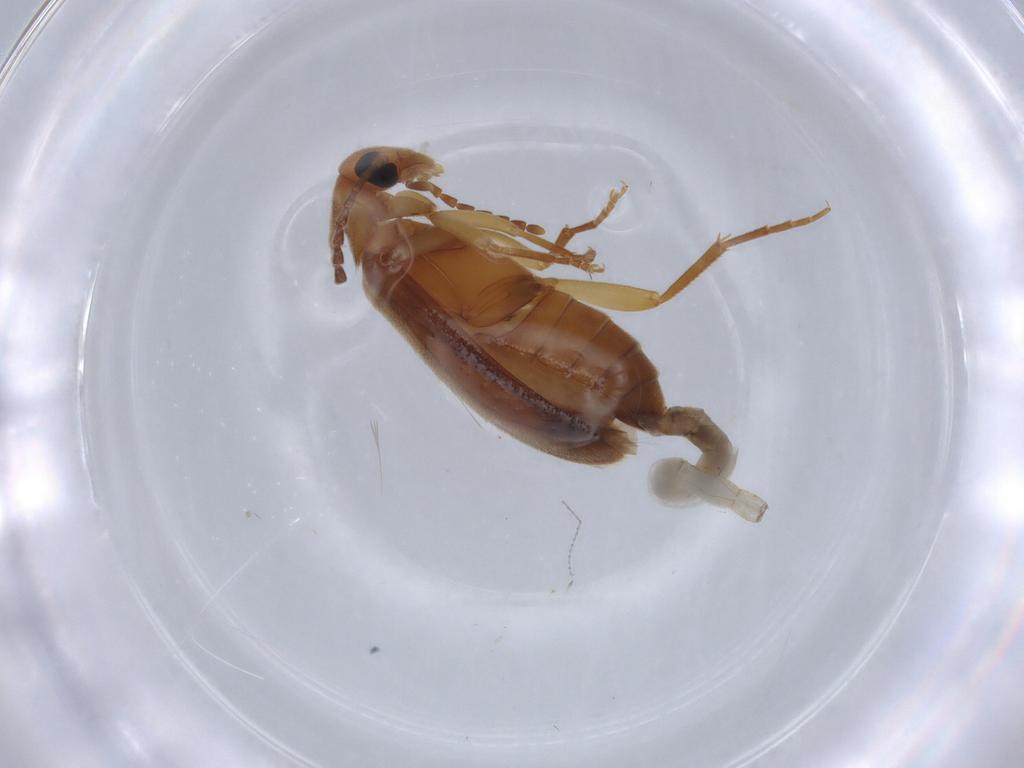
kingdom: Animalia
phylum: Arthropoda
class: Insecta
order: Coleoptera
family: Scraptiidae
